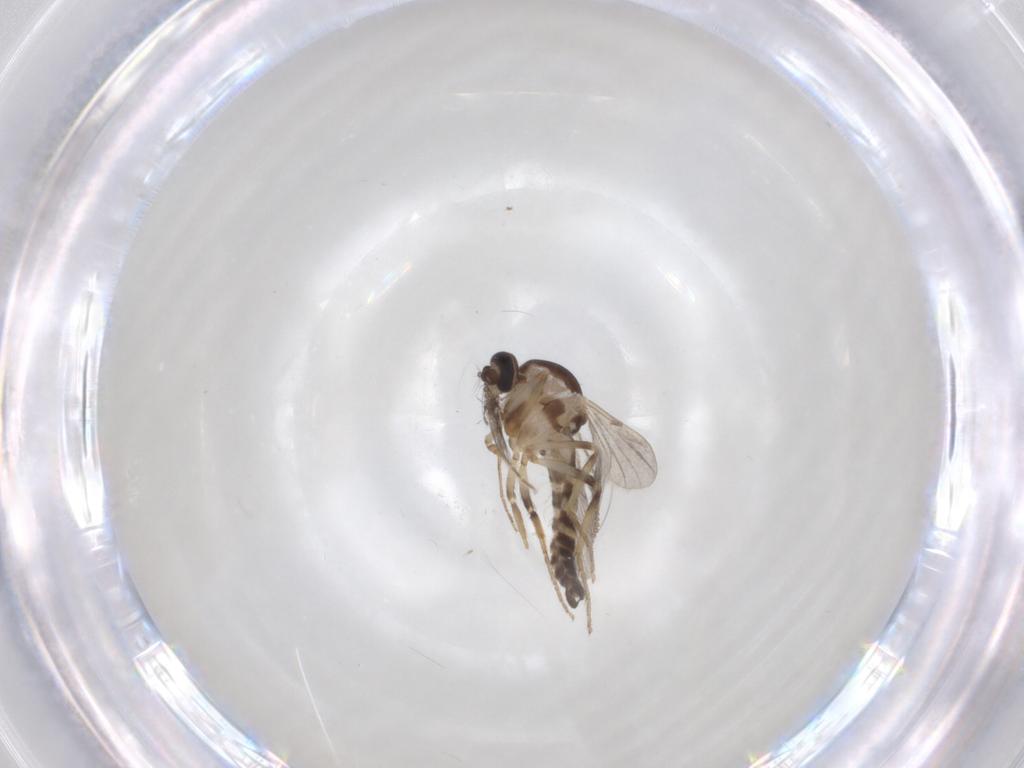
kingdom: Animalia
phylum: Arthropoda
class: Insecta
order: Diptera
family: Ceratopogonidae
